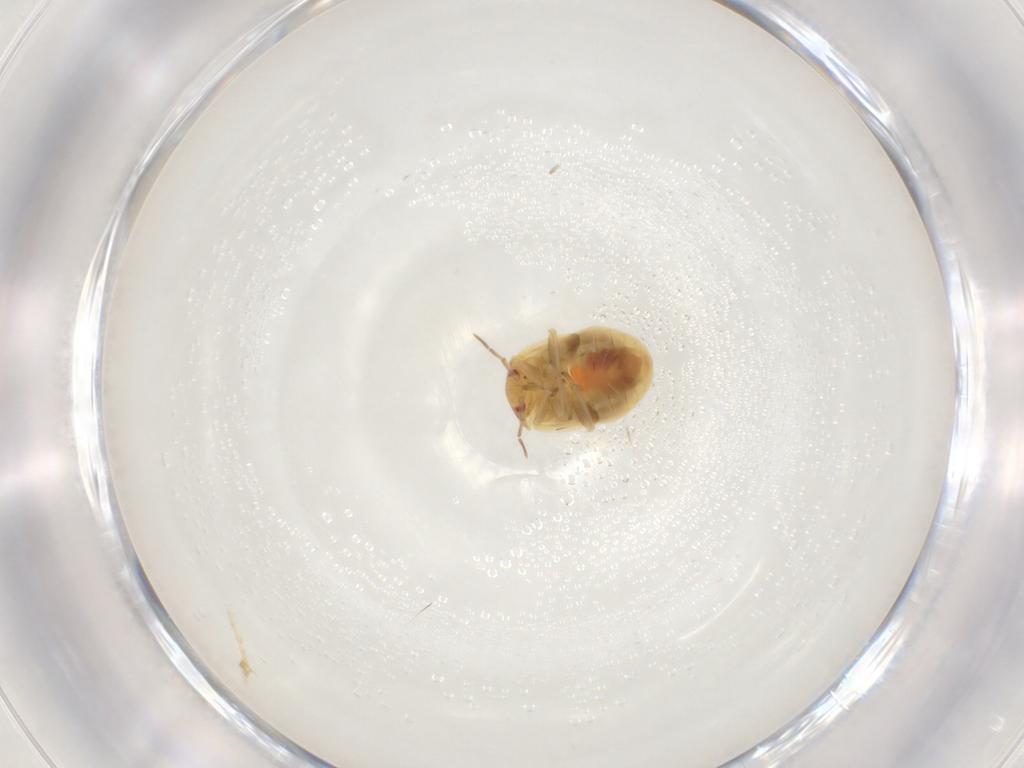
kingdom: Animalia
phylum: Arthropoda
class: Insecta
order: Hemiptera
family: Anthocoridae
